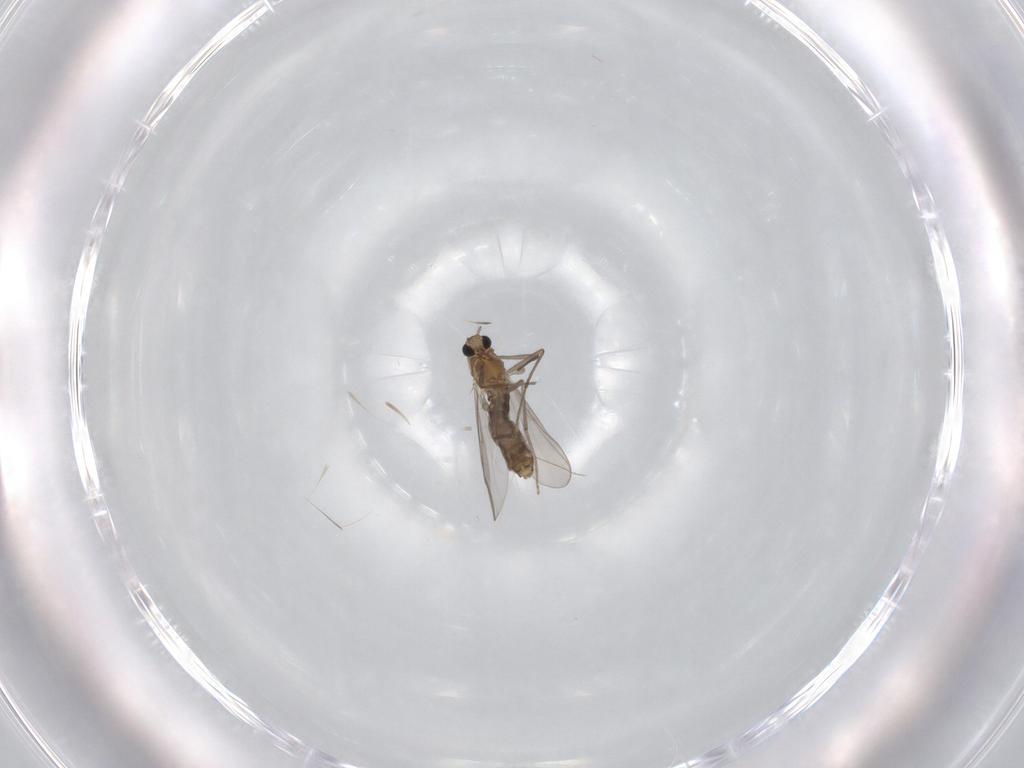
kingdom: Animalia
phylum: Arthropoda
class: Insecta
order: Diptera
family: Chironomidae
